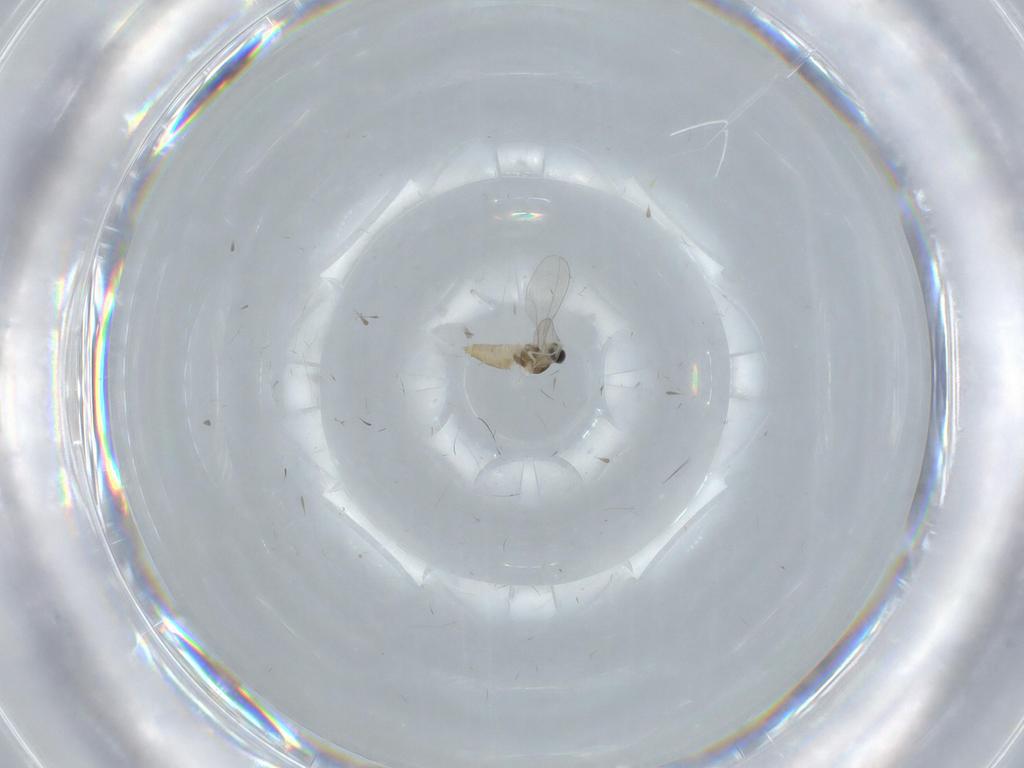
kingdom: Animalia
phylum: Arthropoda
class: Insecta
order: Diptera
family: Cecidomyiidae
